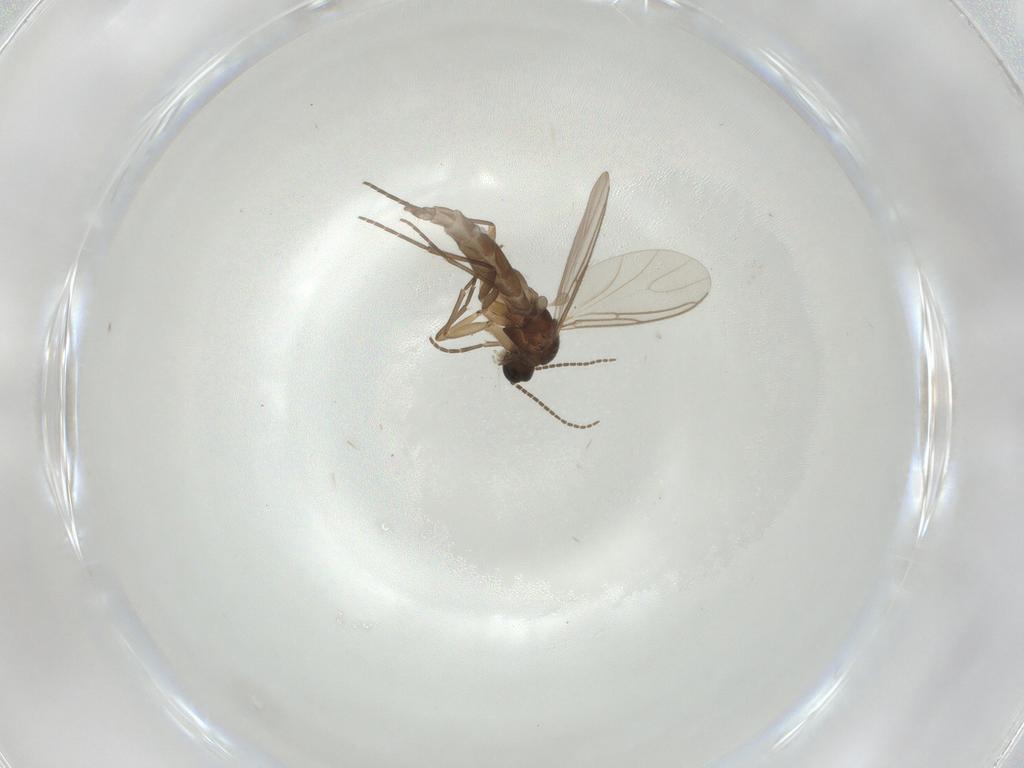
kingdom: Animalia
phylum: Arthropoda
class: Insecta
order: Diptera
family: Sciaridae
